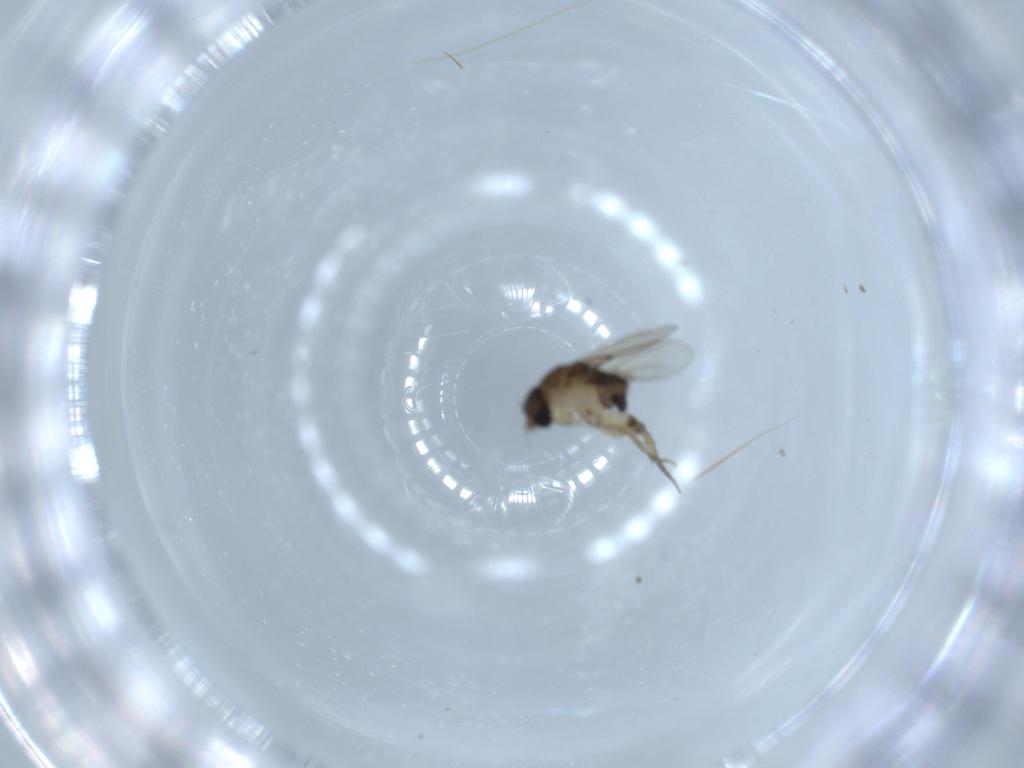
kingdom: Animalia
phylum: Arthropoda
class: Insecta
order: Diptera
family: Phoridae
